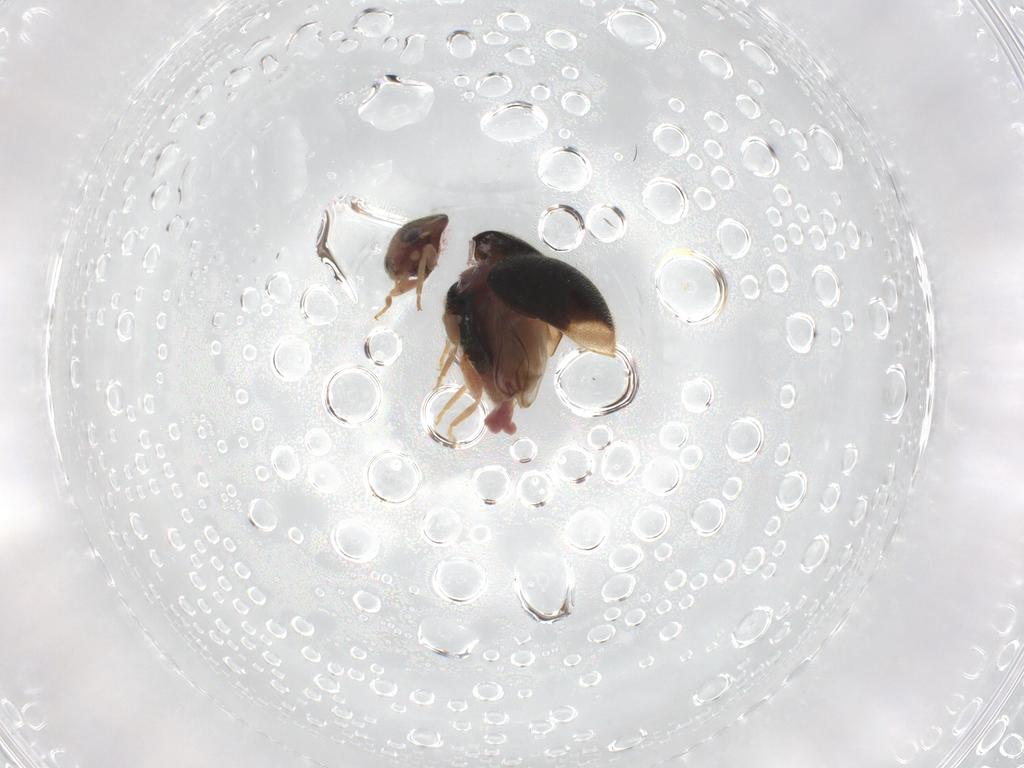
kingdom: Animalia
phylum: Arthropoda
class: Insecta
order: Coleoptera
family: Coccinellidae
